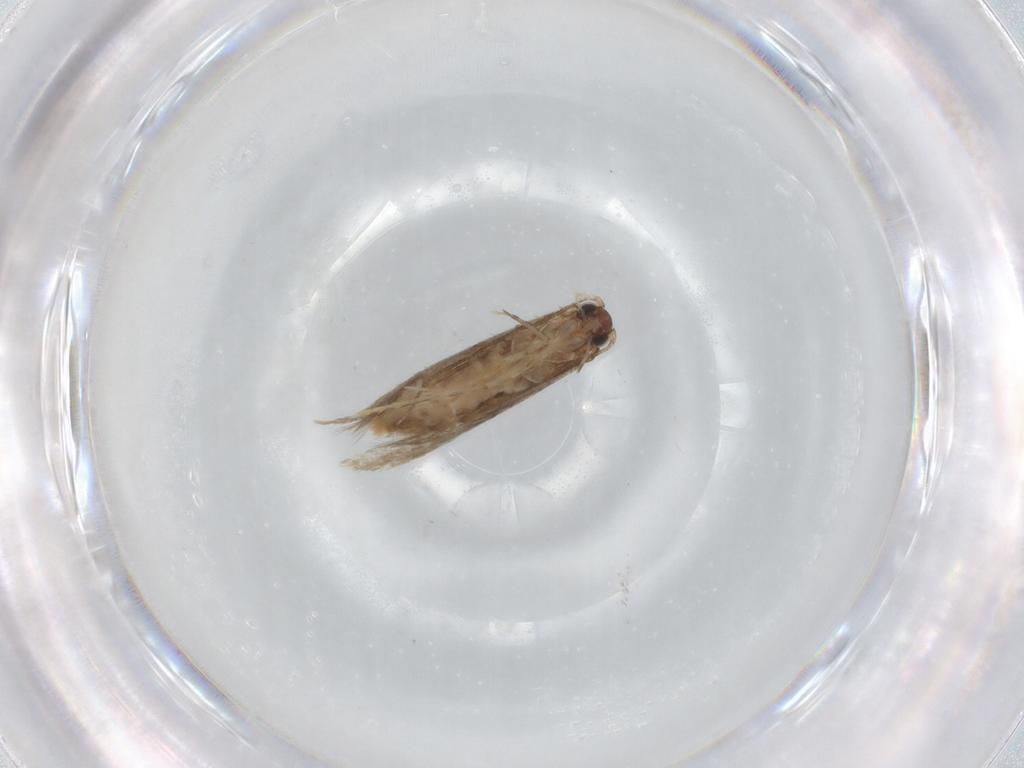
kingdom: Animalia
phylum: Arthropoda
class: Insecta
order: Lepidoptera
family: Tineidae
